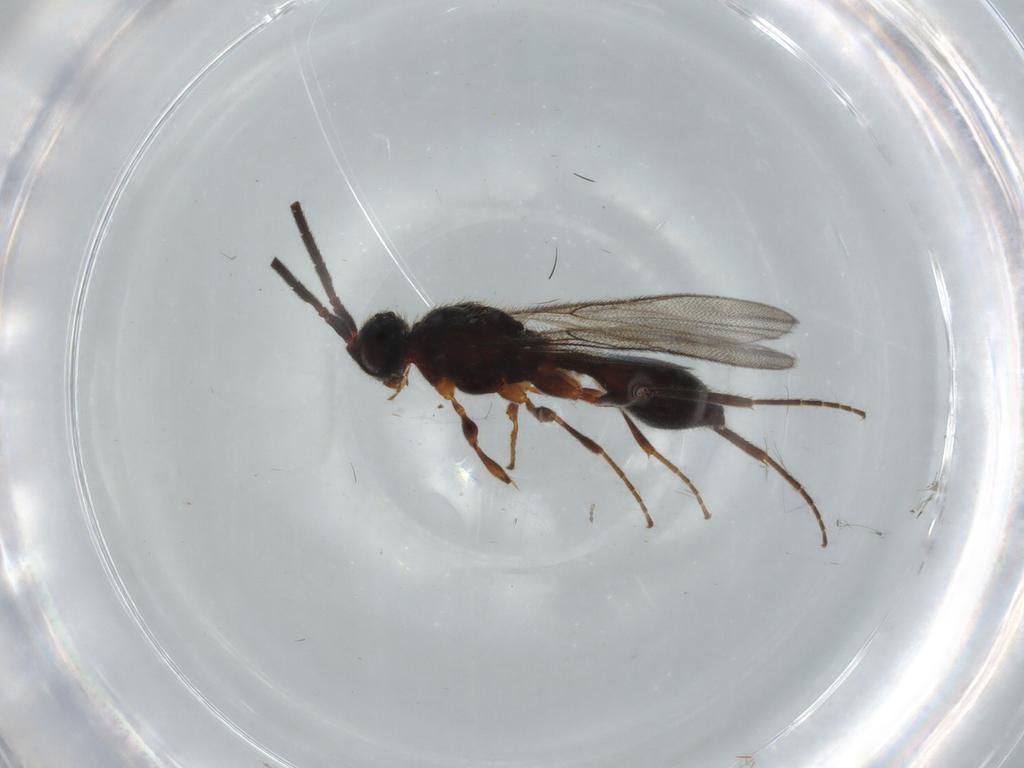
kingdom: Animalia
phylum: Arthropoda
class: Insecta
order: Hymenoptera
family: Diapriidae
